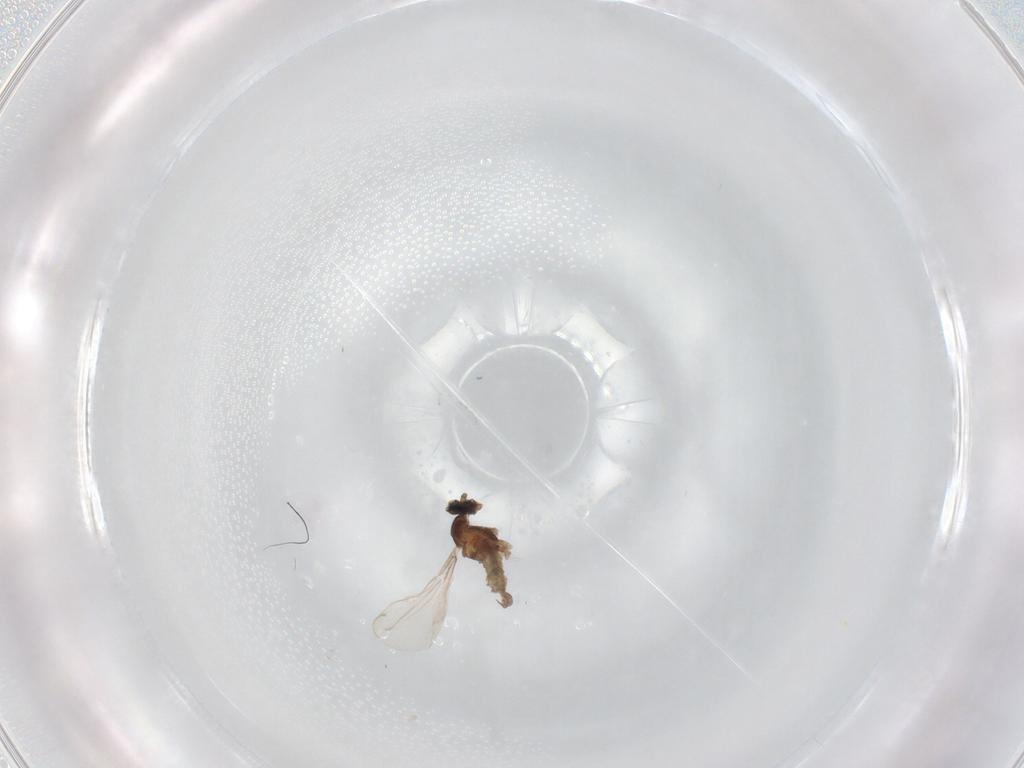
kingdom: Animalia
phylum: Arthropoda
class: Insecta
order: Diptera
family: Cecidomyiidae
